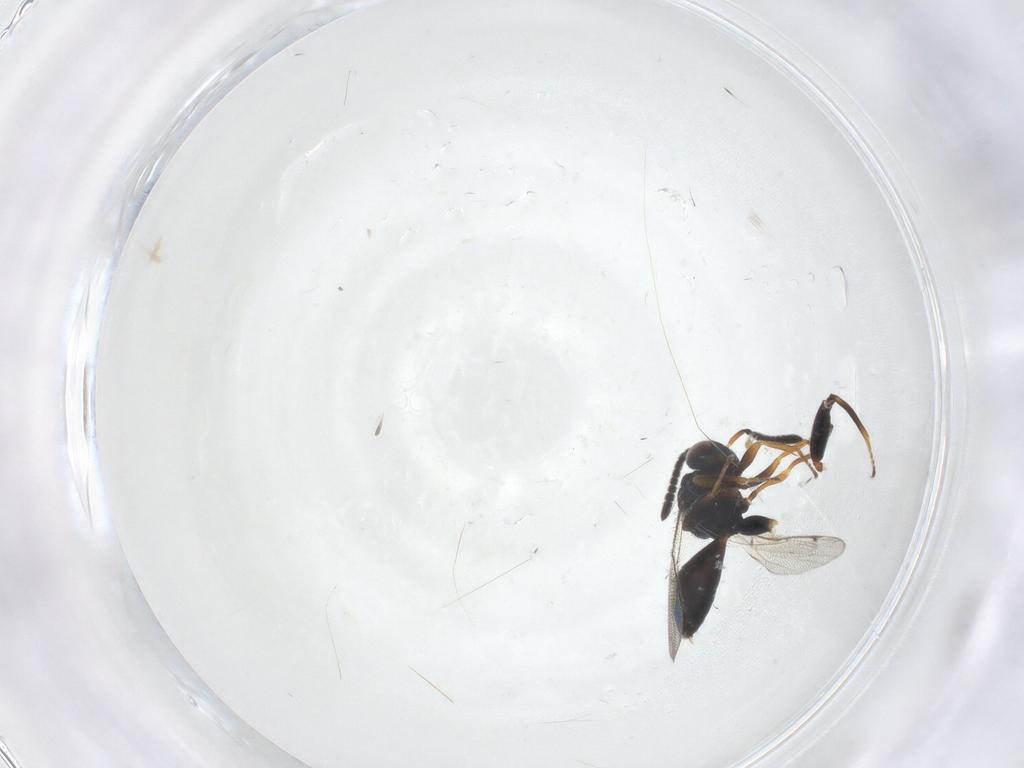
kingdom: Animalia
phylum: Arthropoda
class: Insecta
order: Hymenoptera
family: Torymidae
